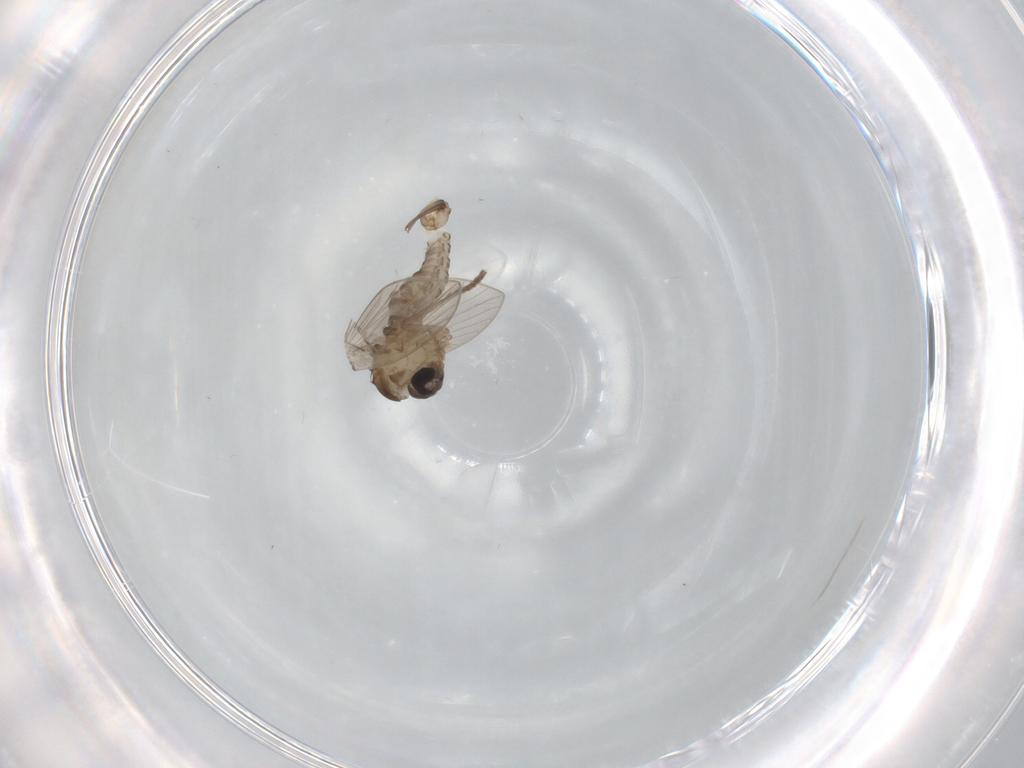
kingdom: Animalia
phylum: Arthropoda
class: Insecta
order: Diptera
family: Psychodidae
